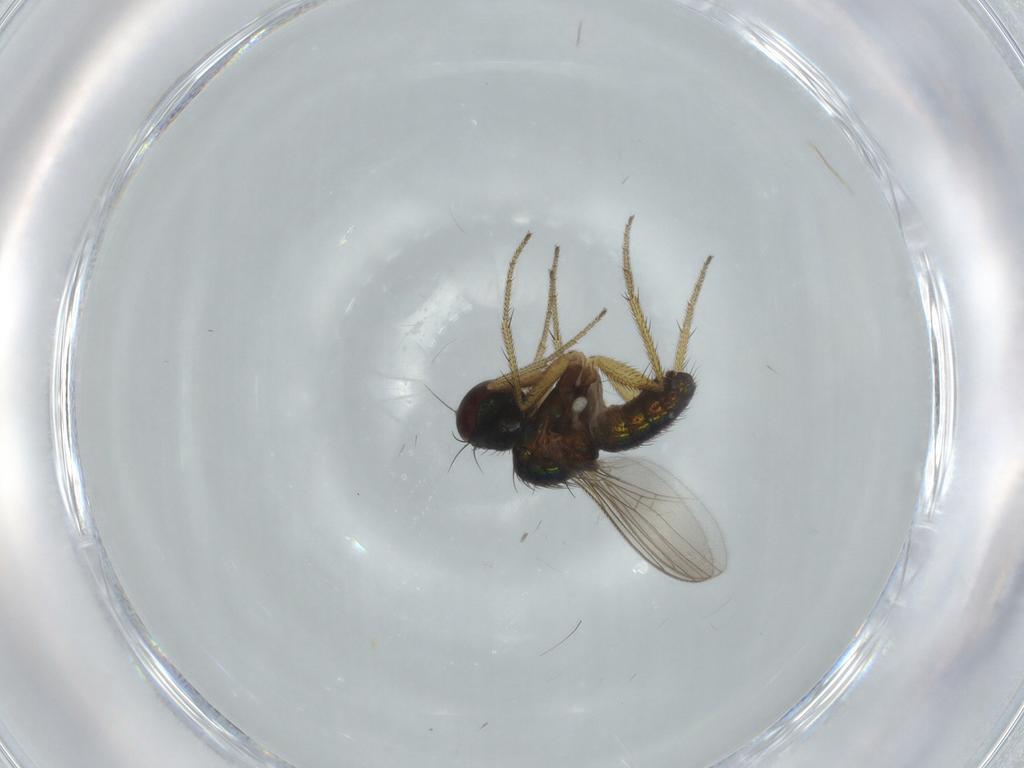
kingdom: Animalia
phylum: Arthropoda
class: Insecta
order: Diptera
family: Dolichopodidae
